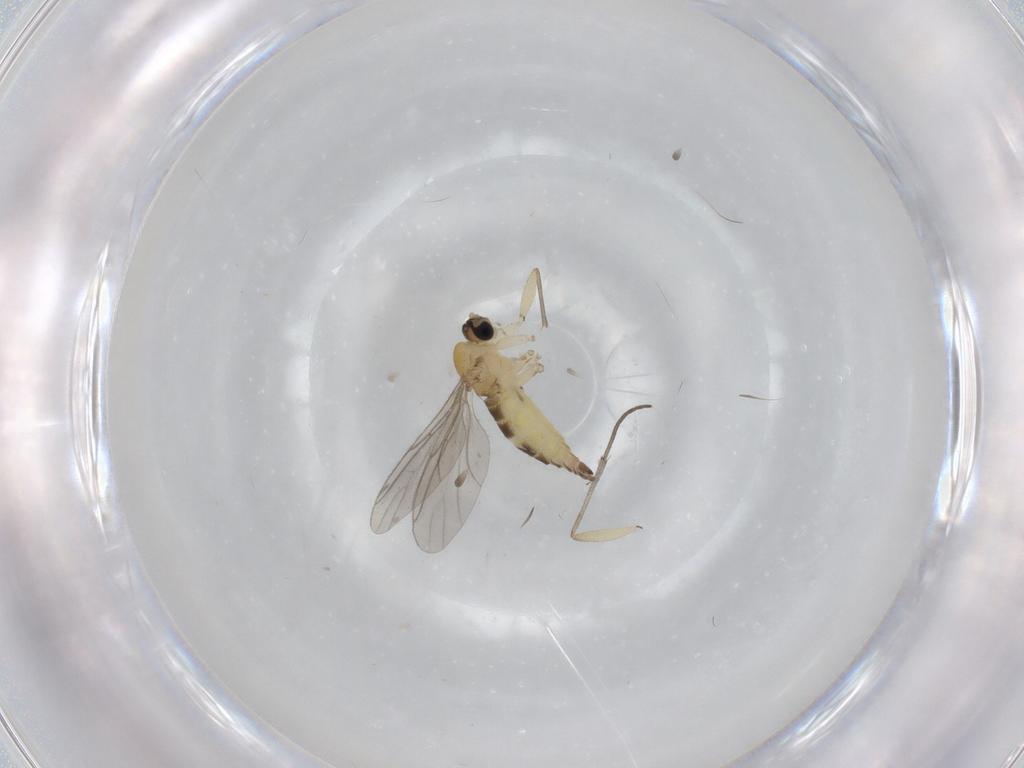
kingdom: Animalia
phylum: Arthropoda
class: Insecta
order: Diptera
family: Cecidomyiidae
